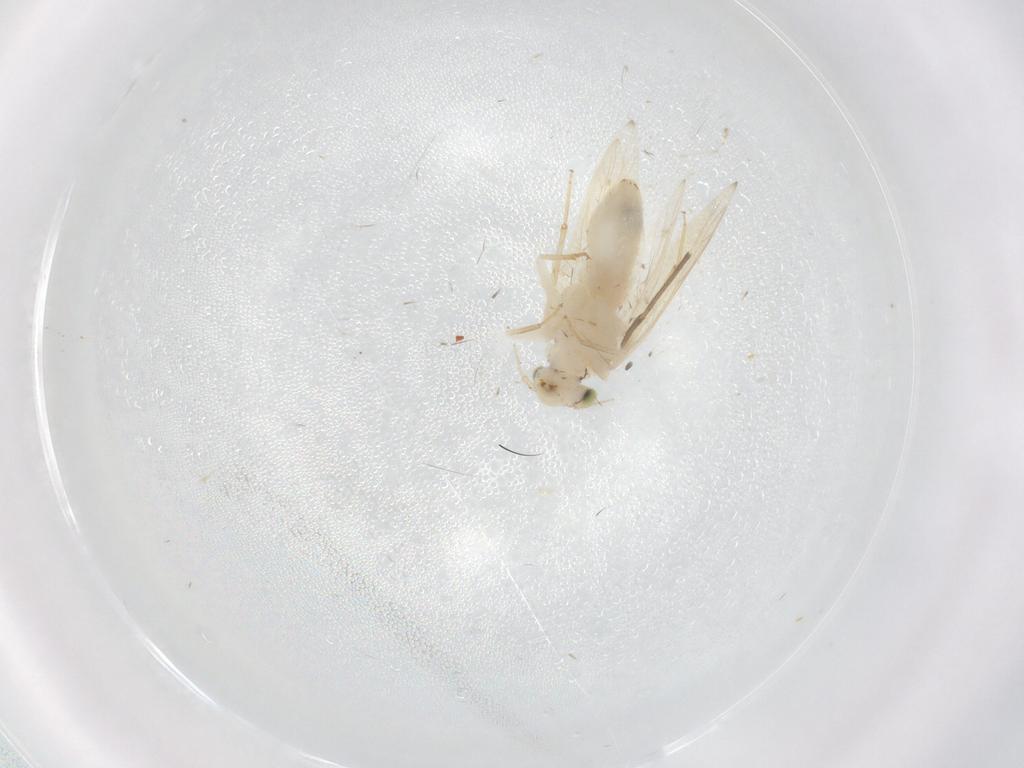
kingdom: Animalia
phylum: Arthropoda
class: Insecta
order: Psocodea
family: Lepidopsocidae
